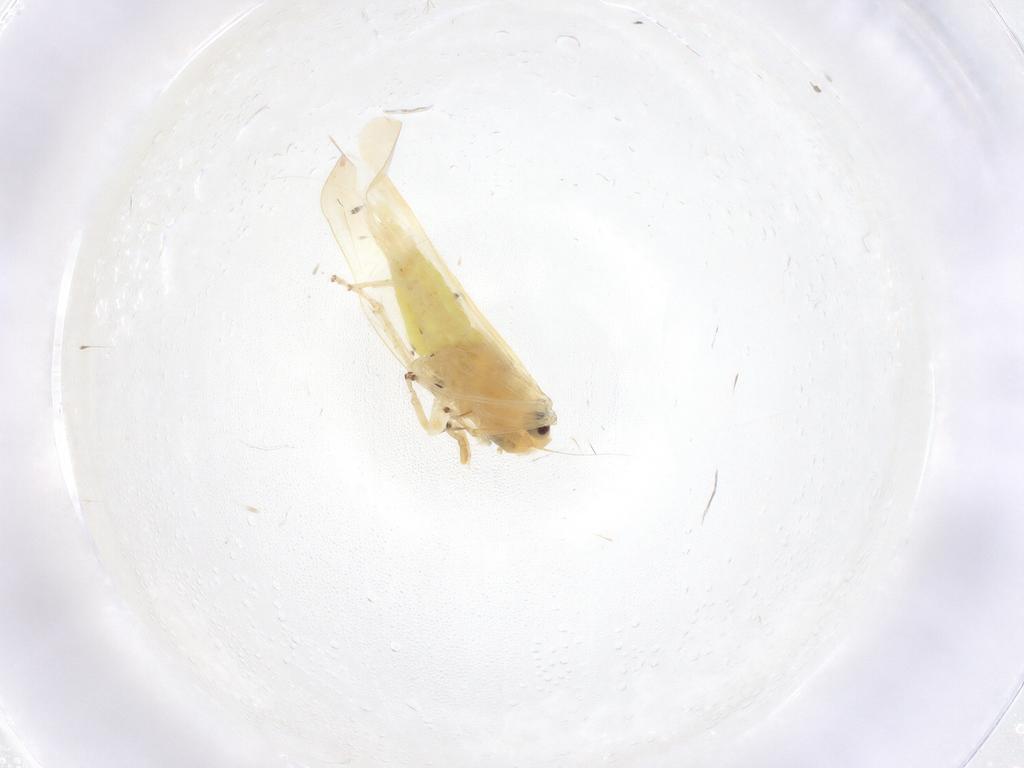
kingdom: Animalia
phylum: Arthropoda
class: Insecta
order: Hemiptera
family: Cicadellidae
